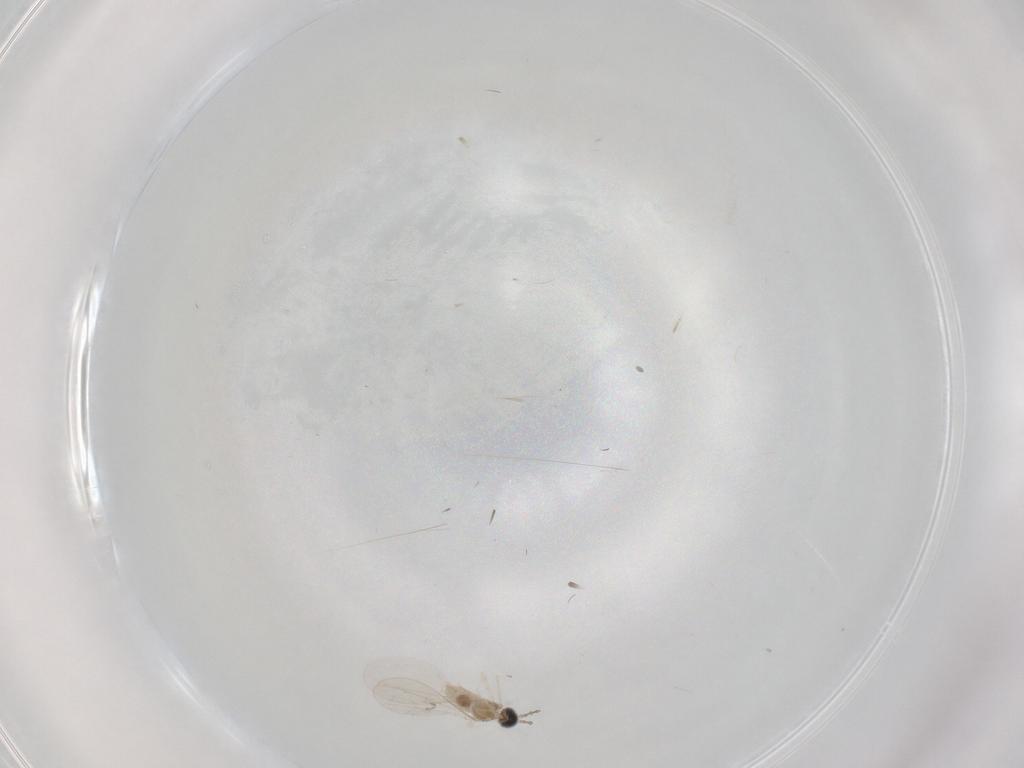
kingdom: Animalia
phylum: Arthropoda
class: Insecta
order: Diptera
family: Cecidomyiidae
